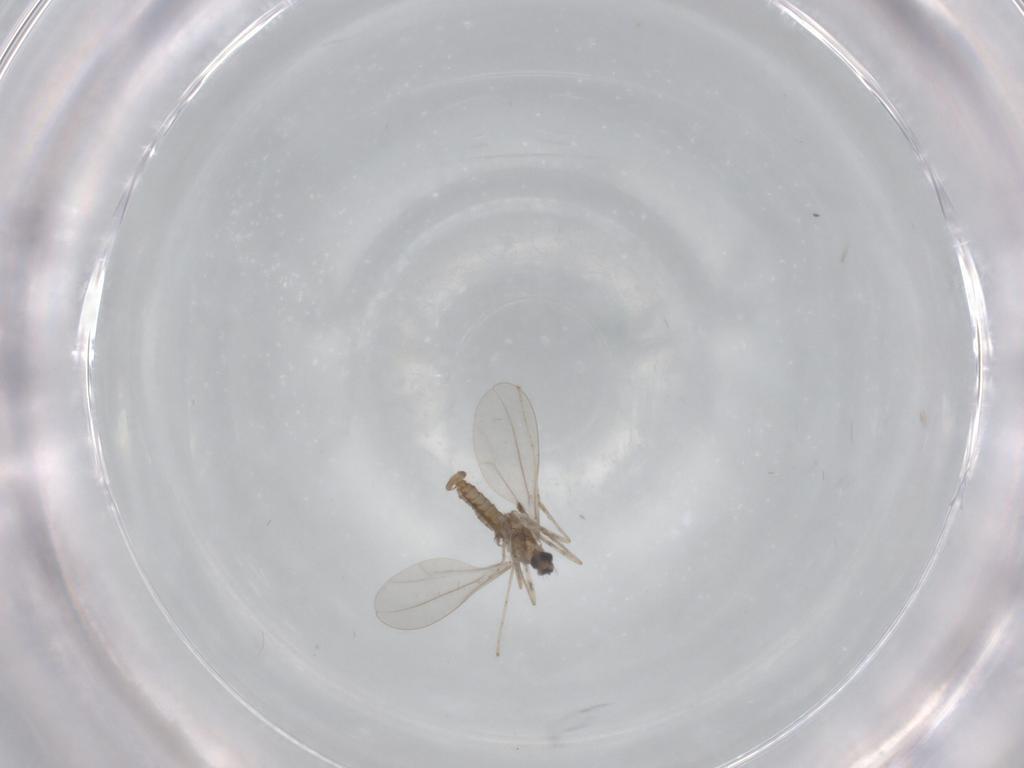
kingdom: Animalia
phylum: Arthropoda
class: Insecta
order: Diptera
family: Cecidomyiidae
